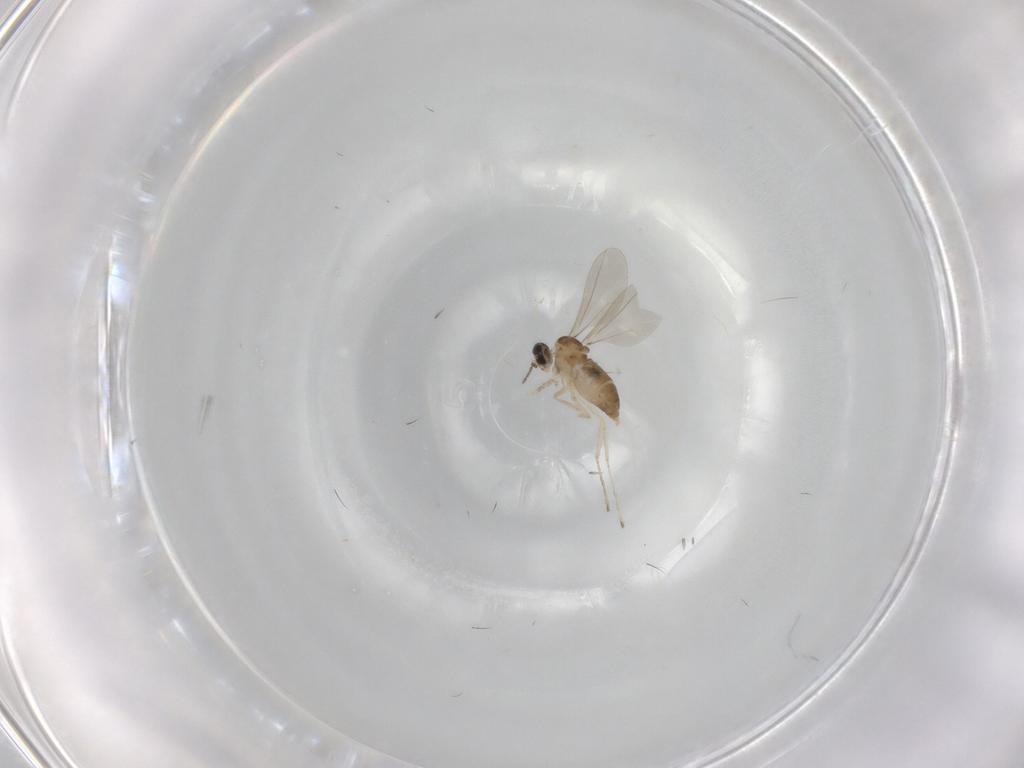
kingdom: Animalia
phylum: Arthropoda
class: Insecta
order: Diptera
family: Cecidomyiidae
